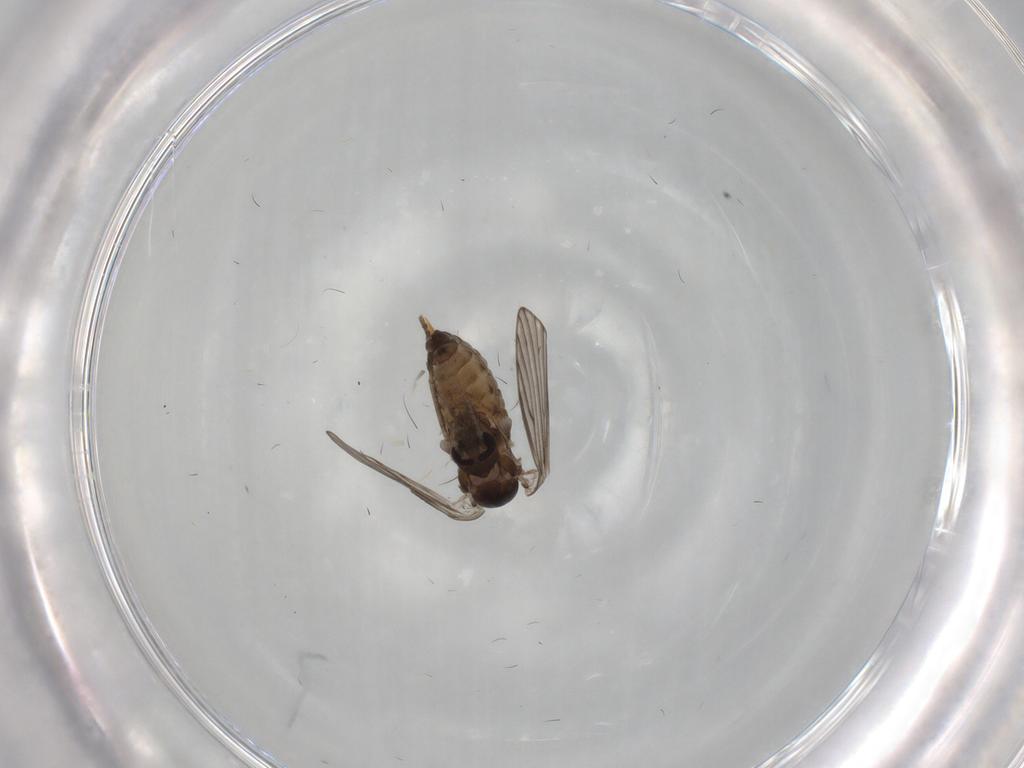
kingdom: Animalia
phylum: Arthropoda
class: Insecta
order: Diptera
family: Psychodidae
